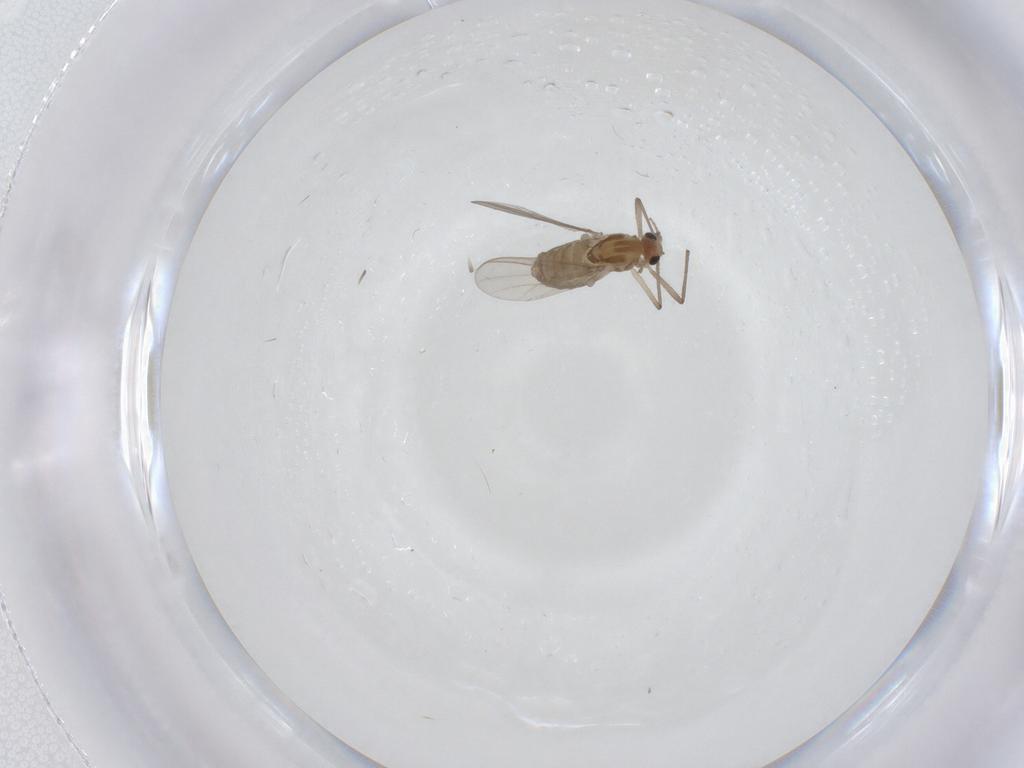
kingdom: Animalia
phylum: Arthropoda
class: Insecta
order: Diptera
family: Chironomidae
